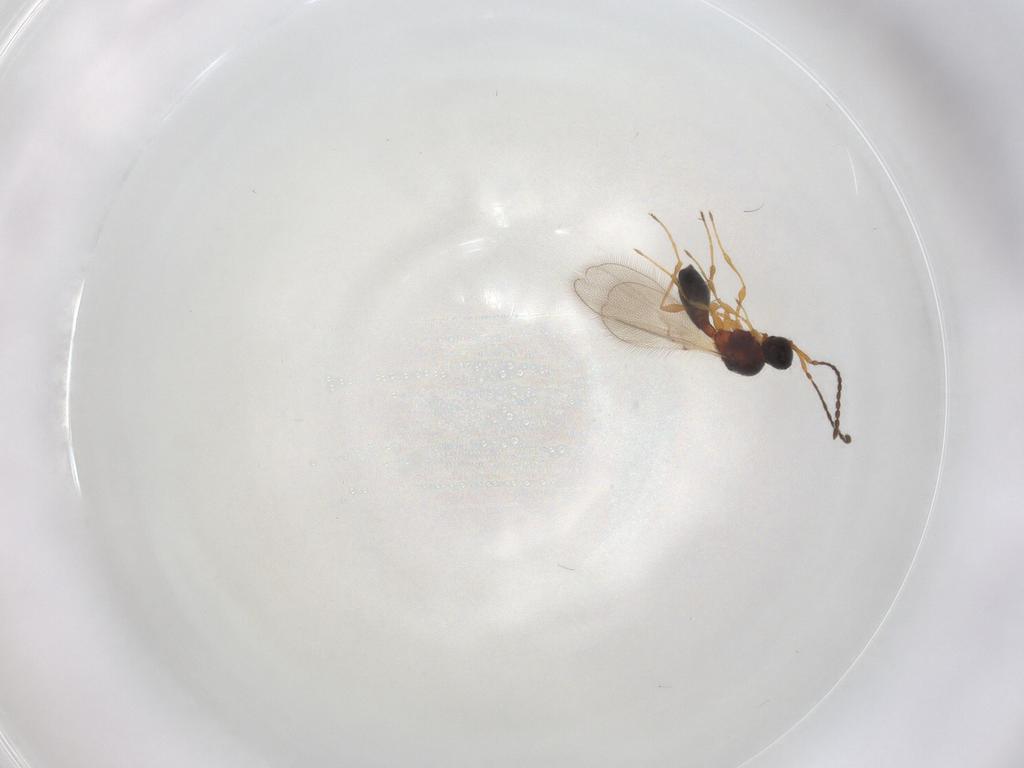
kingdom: Animalia
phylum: Arthropoda
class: Insecta
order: Hymenoptera
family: Diapriidae
